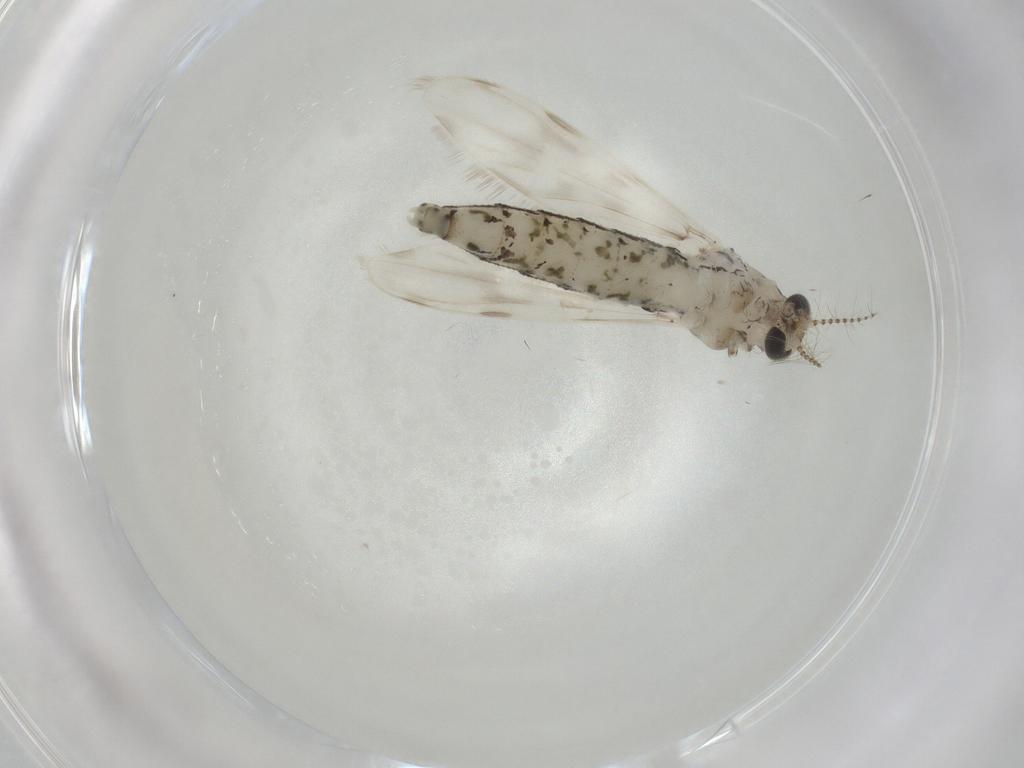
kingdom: Animalia
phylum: Arthropoda
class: Insecta
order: Diptera
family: Chaoboridae
